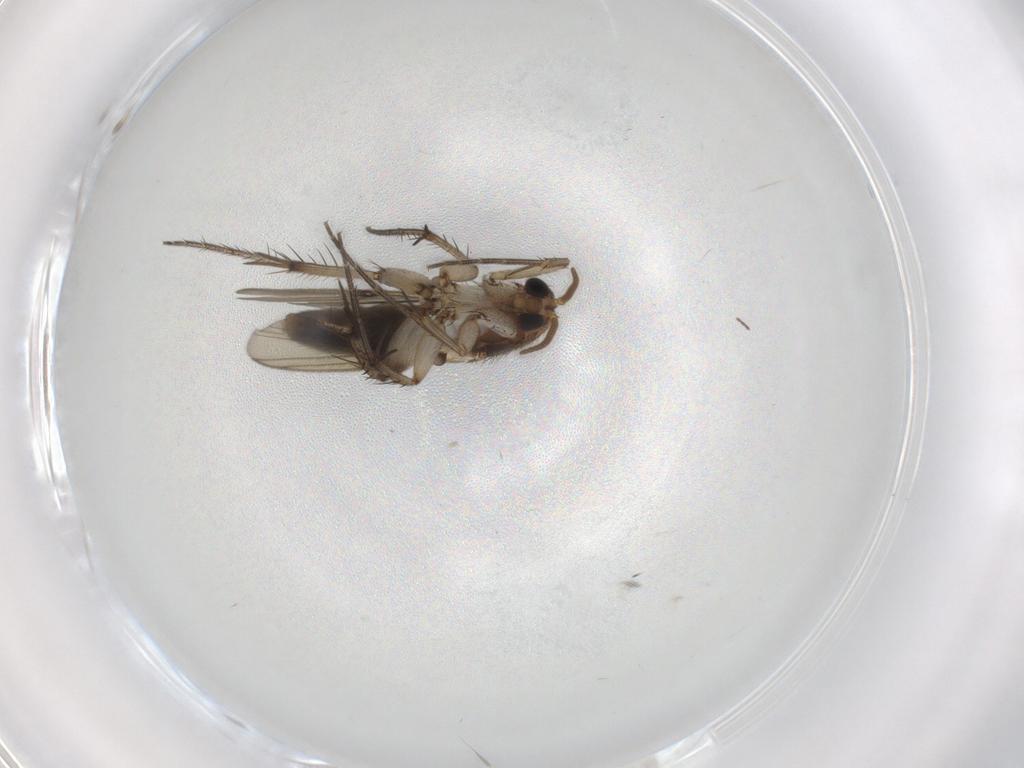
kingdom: Animalia
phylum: Arthropoda
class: Insecta
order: Diptera
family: Mycetophilidae
